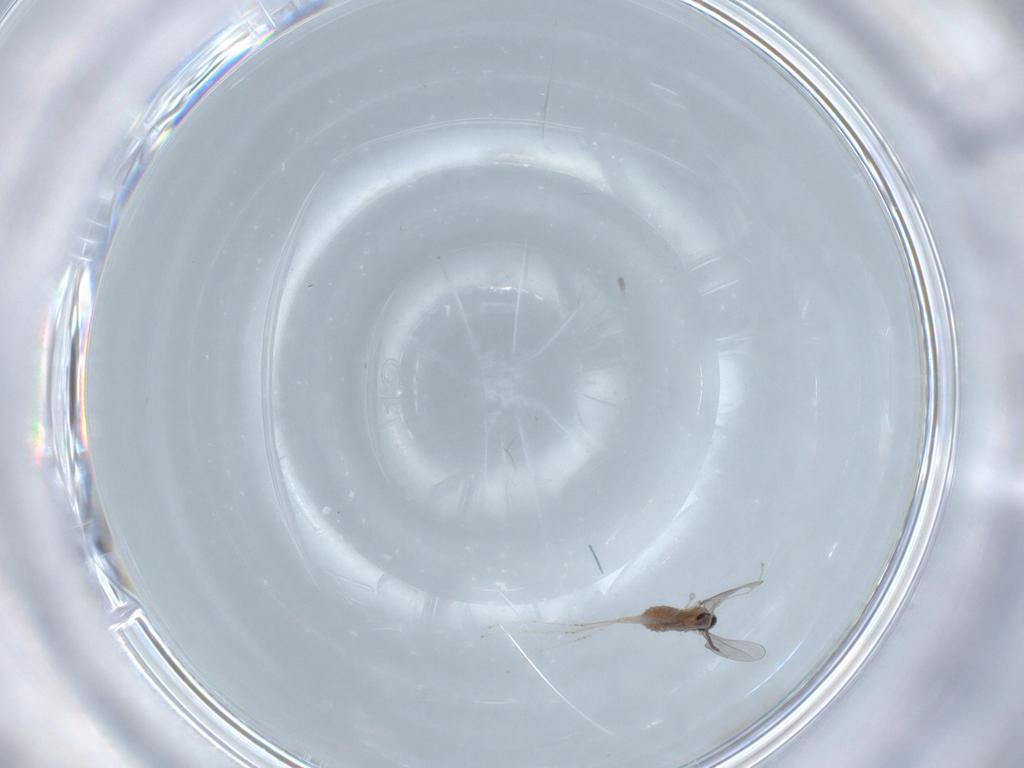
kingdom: Animalia
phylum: Arthropoda
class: Insecta
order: Diptera
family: Cecidomyiidae
